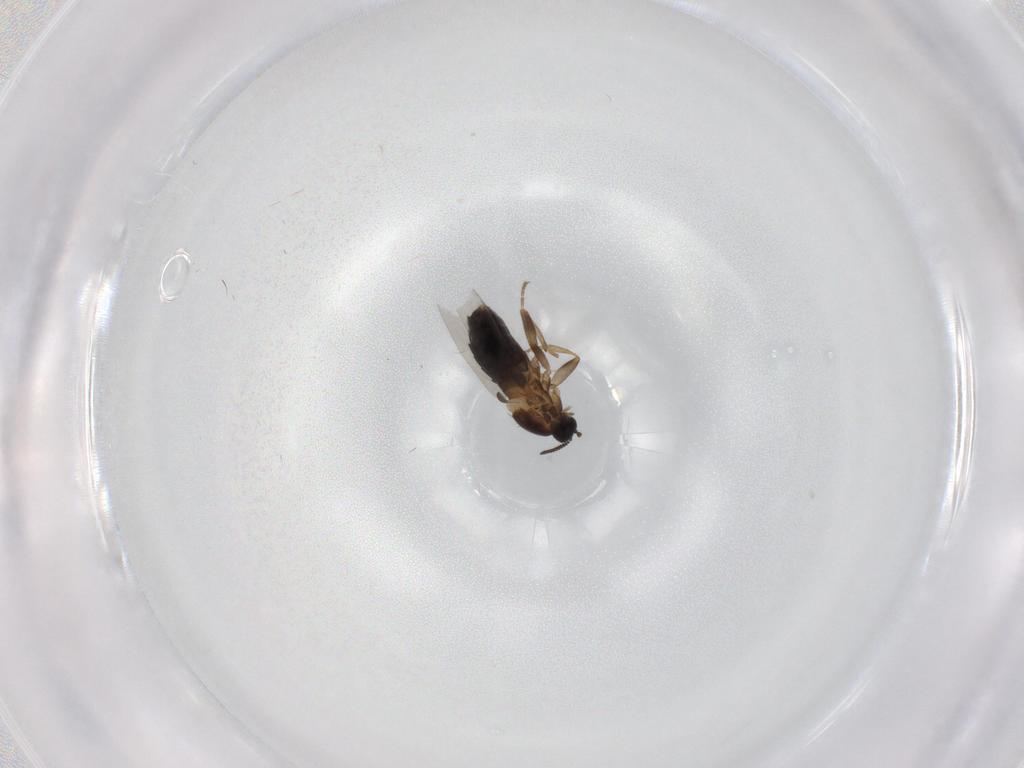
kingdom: Animalia
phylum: Arthropoda
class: Insecta
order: Diptera
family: Scatopsidae
